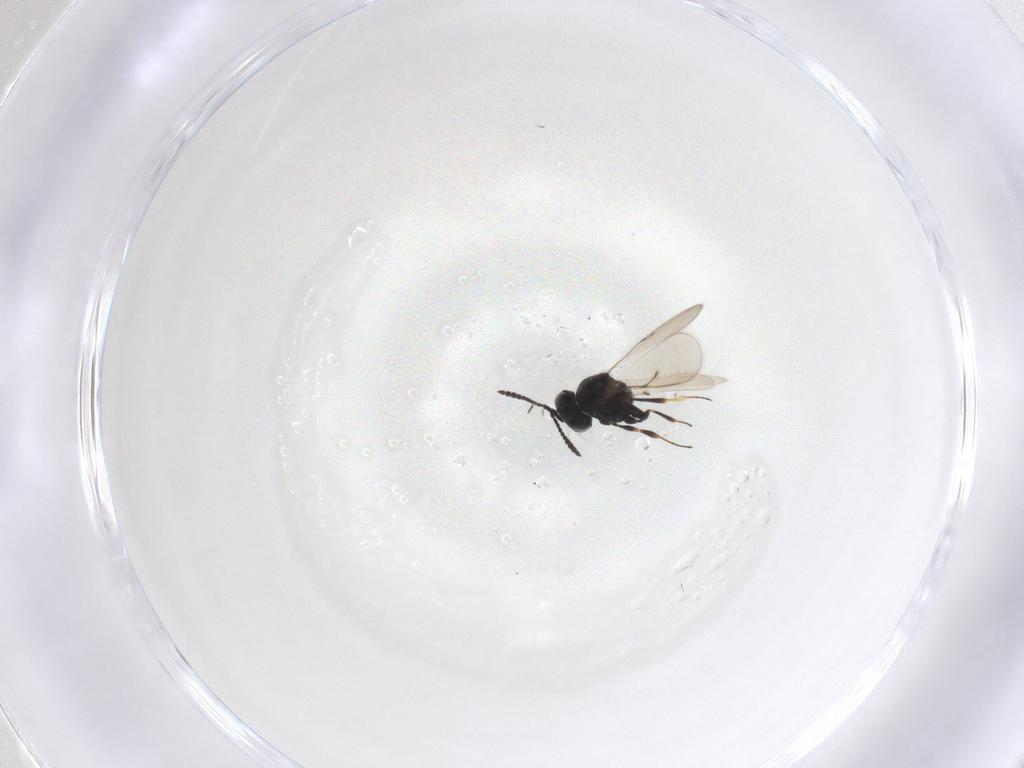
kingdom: Animalia
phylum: Arthropoda
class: Insecta
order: Hymenoptera
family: Scelionidae
